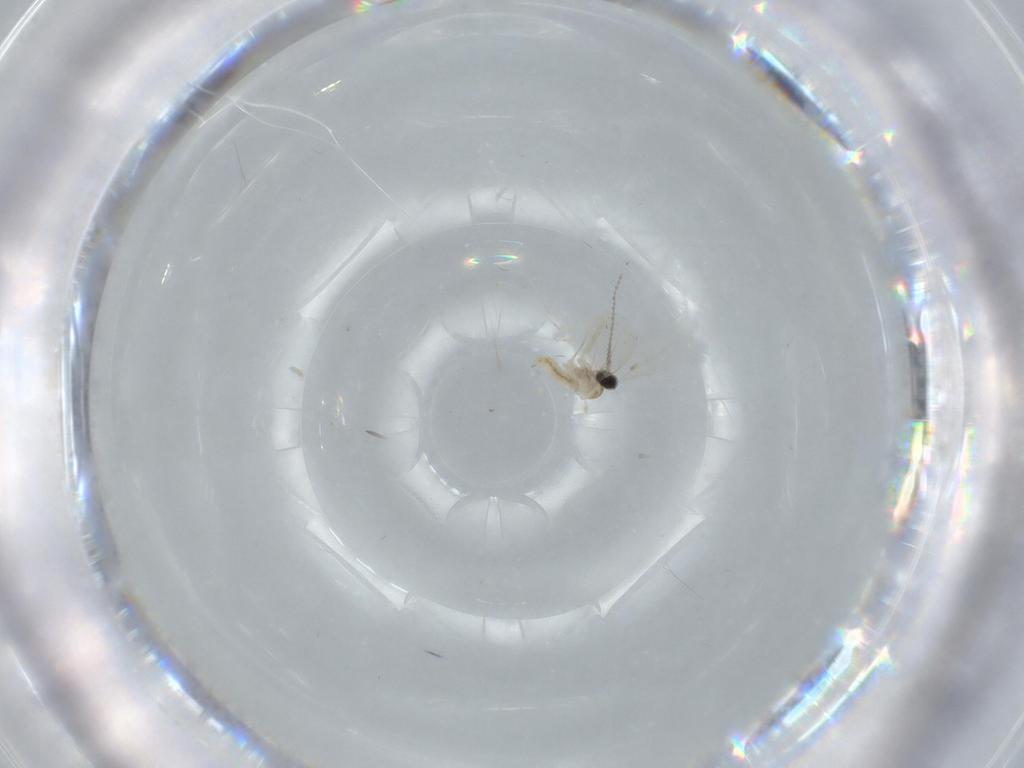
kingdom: Animalia
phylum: Arthropoda
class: Insecta
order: Diptera
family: Cecidomyiidae
